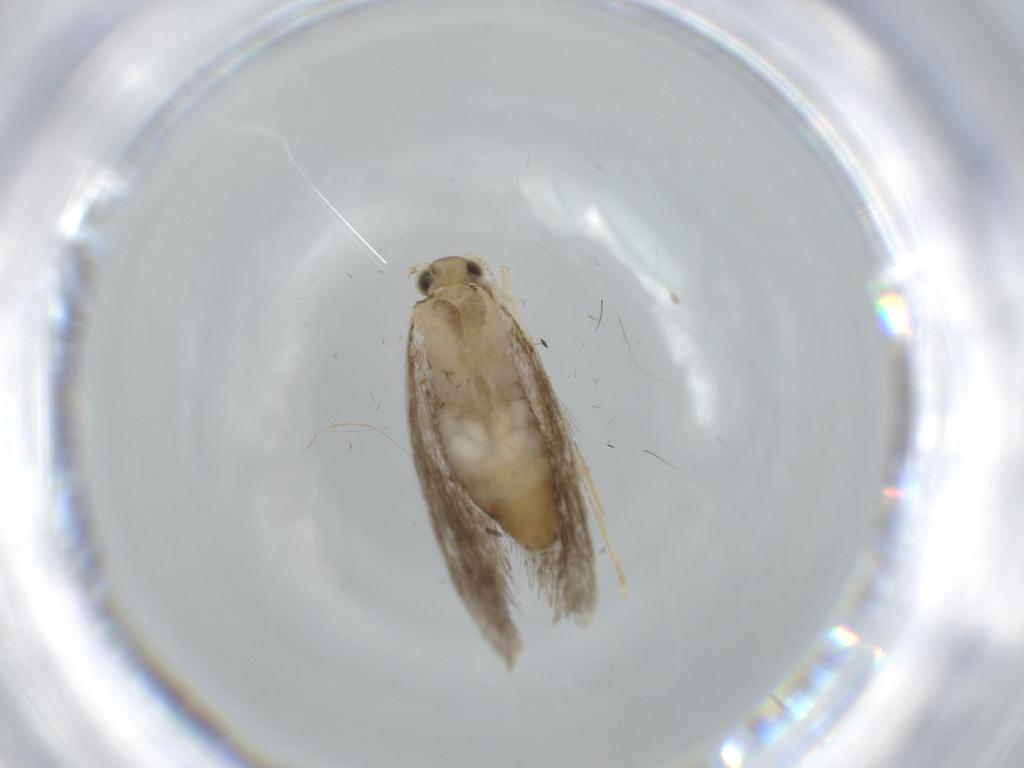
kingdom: Animalia
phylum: Arthropoda
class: Insecta
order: Lepidoptera
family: Tineidae
